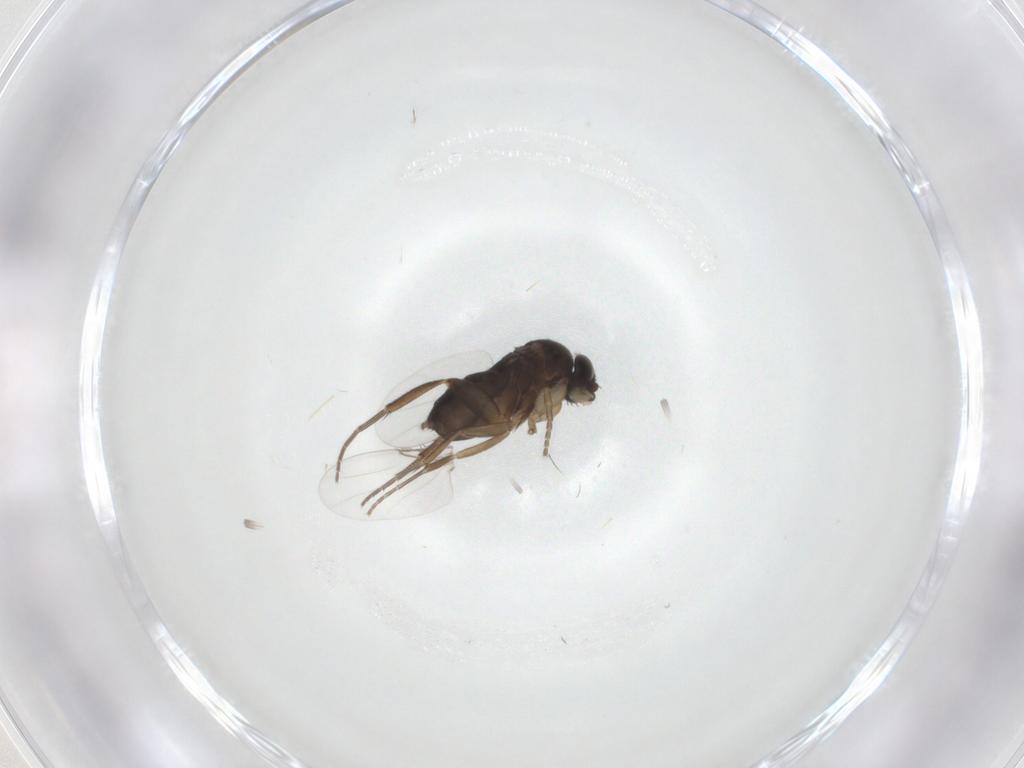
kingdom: Animalia
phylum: Arthropoda
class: Insecta
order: Diptera
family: Phoridae
